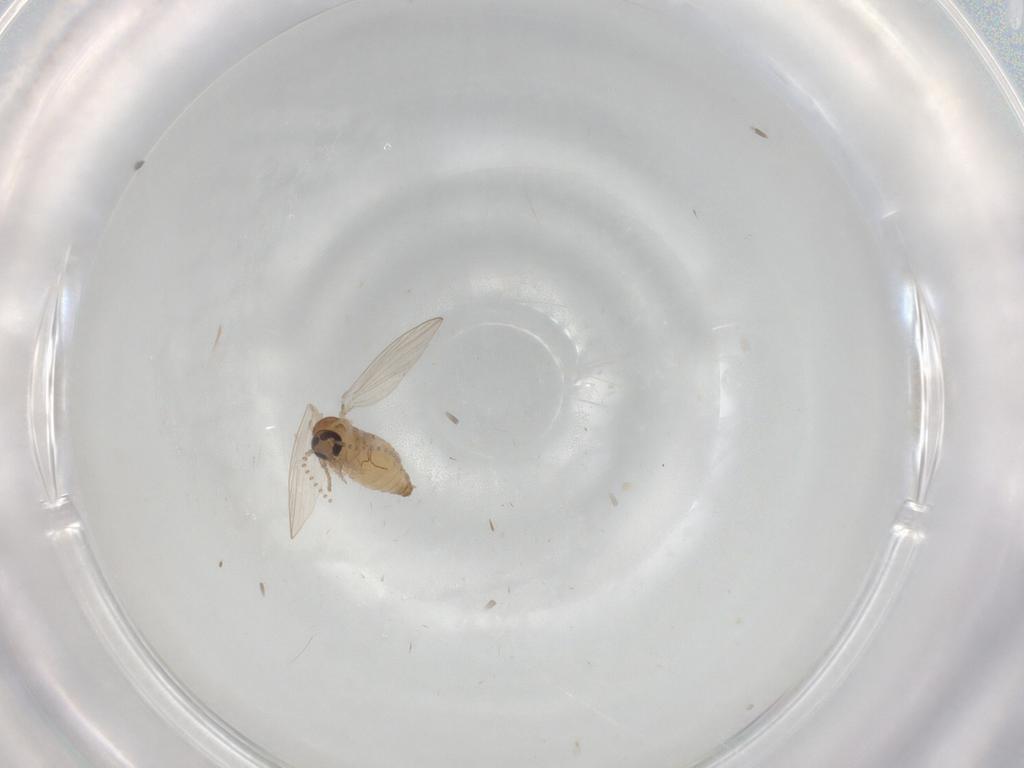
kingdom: Animalia
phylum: Arthropoda
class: Insecta
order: Diptera
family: Psychodidae
